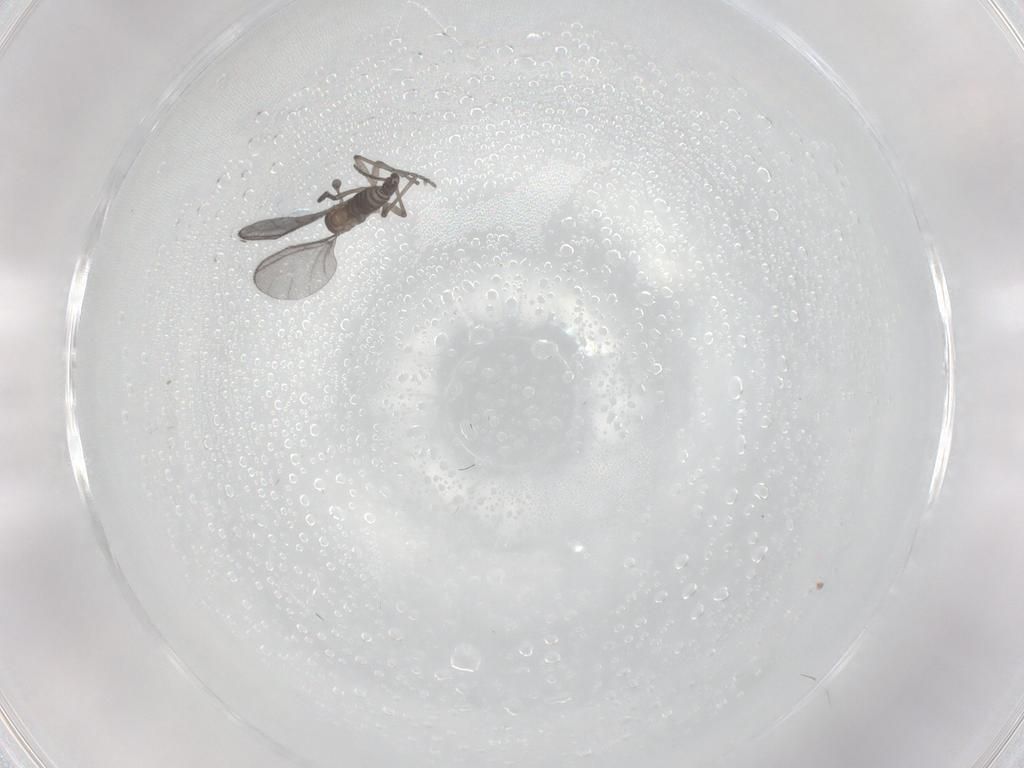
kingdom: Animalia
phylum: Arthropoda
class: Insecta
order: Diptera
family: Sciaridae
